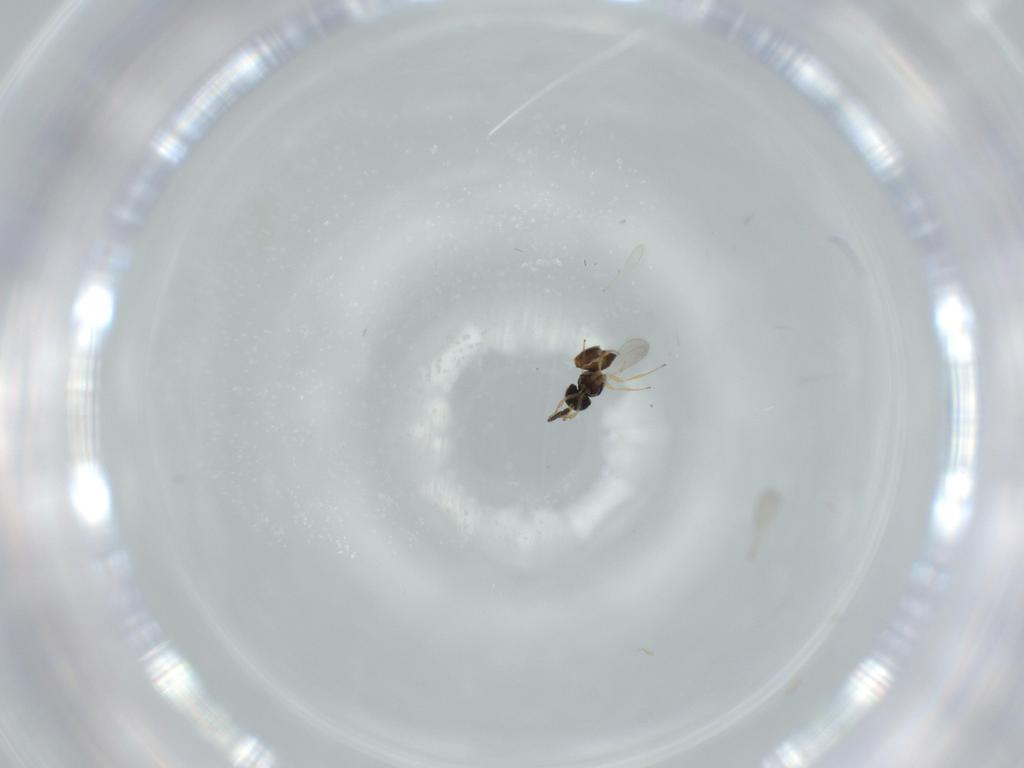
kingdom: Animalia
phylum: Arthropoda
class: Insecta
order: Hymenoptera
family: Scelionidae
